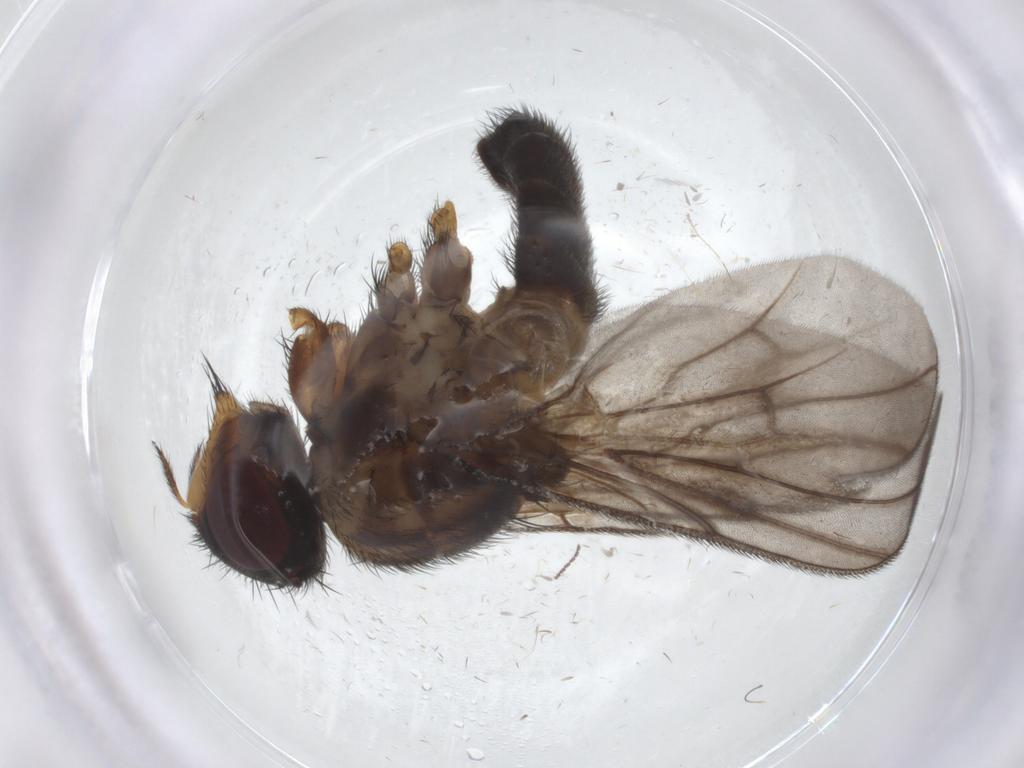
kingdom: Animalia
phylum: Arthropoda
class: Insecta
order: Diptera
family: Calliphoridae
